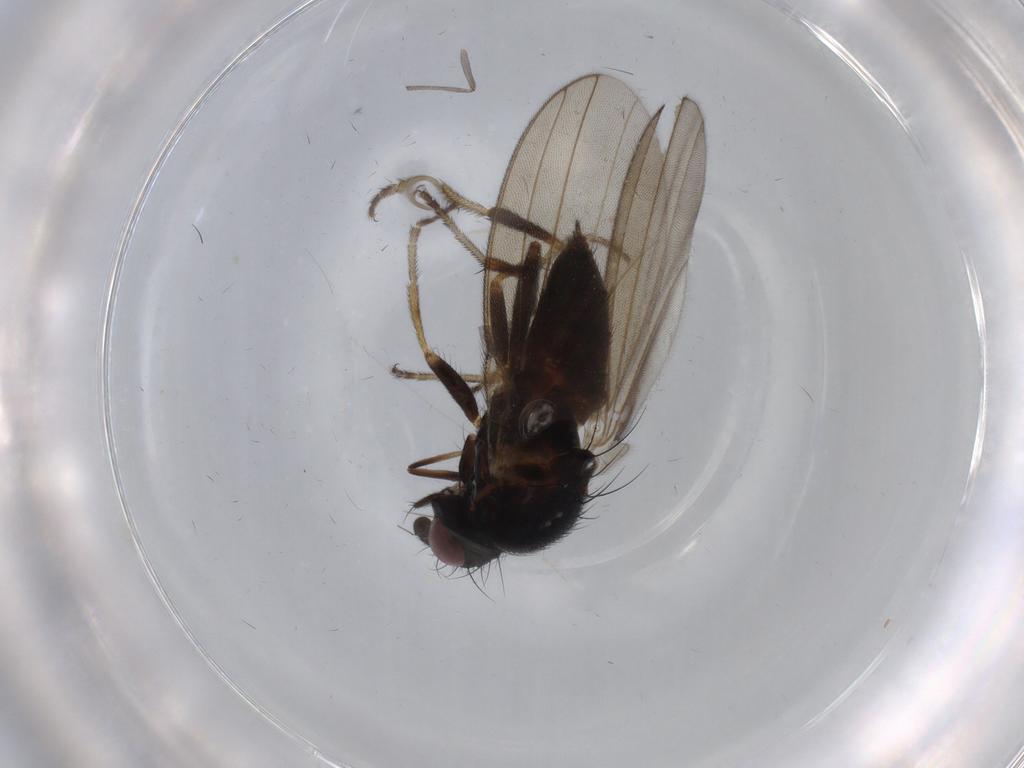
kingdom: Animalia
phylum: Arthropoda
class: Insecta
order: Diptera
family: Milichiidae
